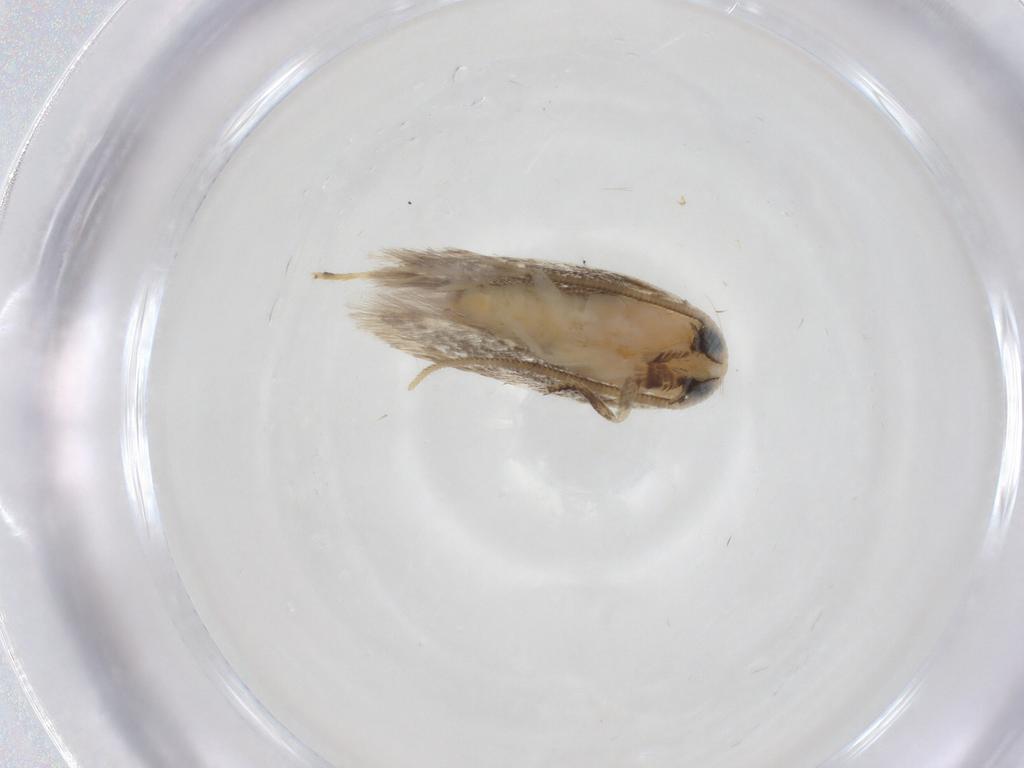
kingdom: Animalia
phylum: Arthropoda
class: Insecta
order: Lepidoptera
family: Opostegidae
